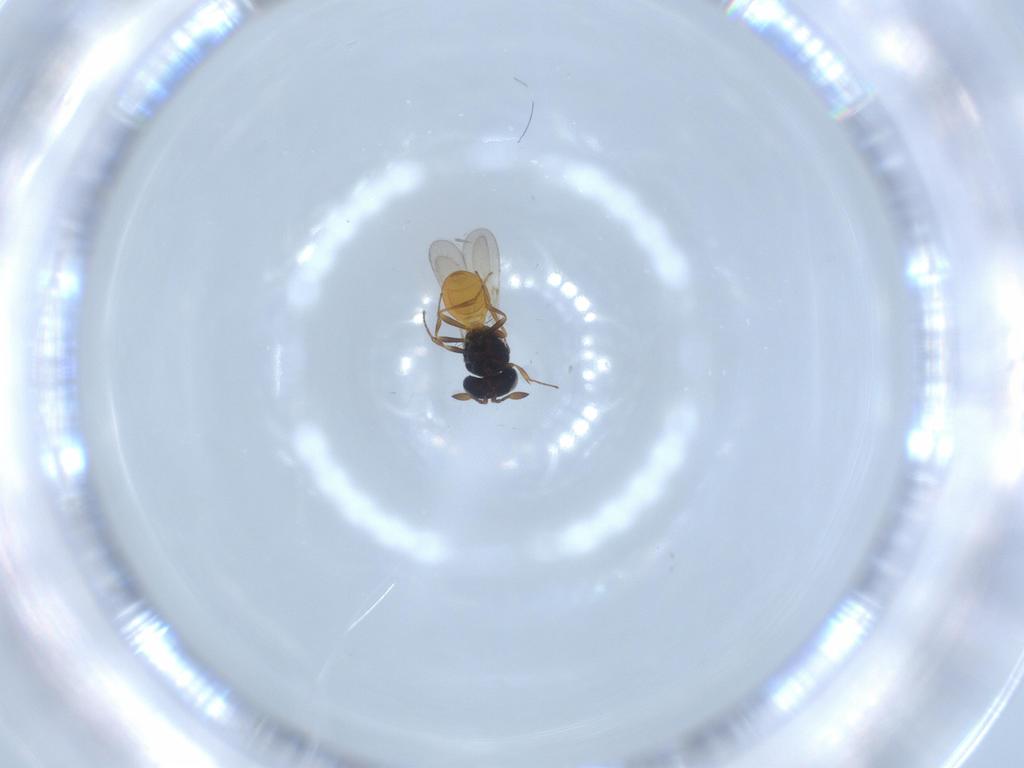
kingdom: Animalia
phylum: Arthropoda
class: Insecta
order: Hymenoptera
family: Scelionidae
